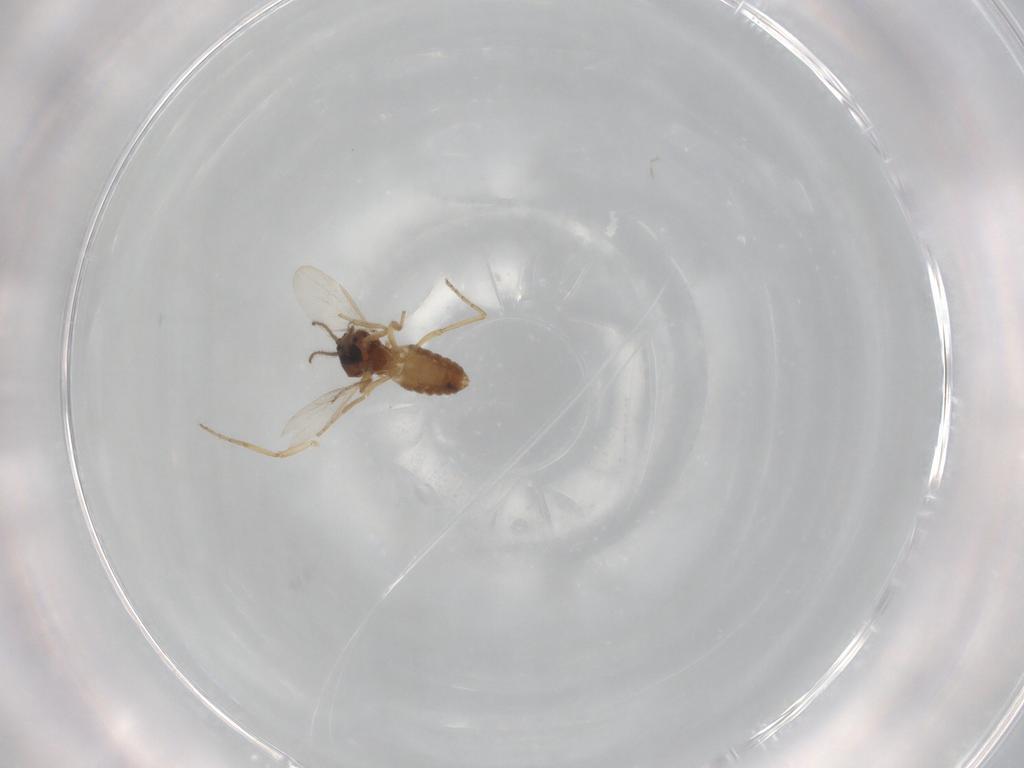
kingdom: Animalia
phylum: Arthropoda
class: Insecta
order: Diptera
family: Ceratopogonidae
